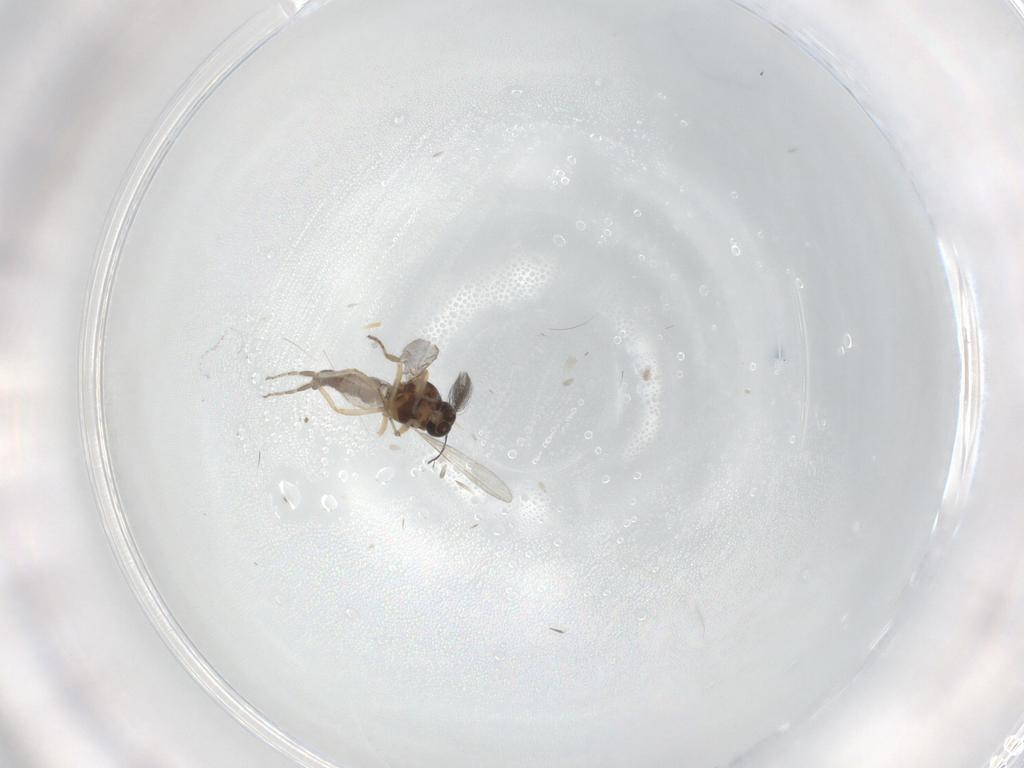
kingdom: Animalia
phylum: Arthropoda
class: Insecta
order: Diptera
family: Ceratopogonidae
